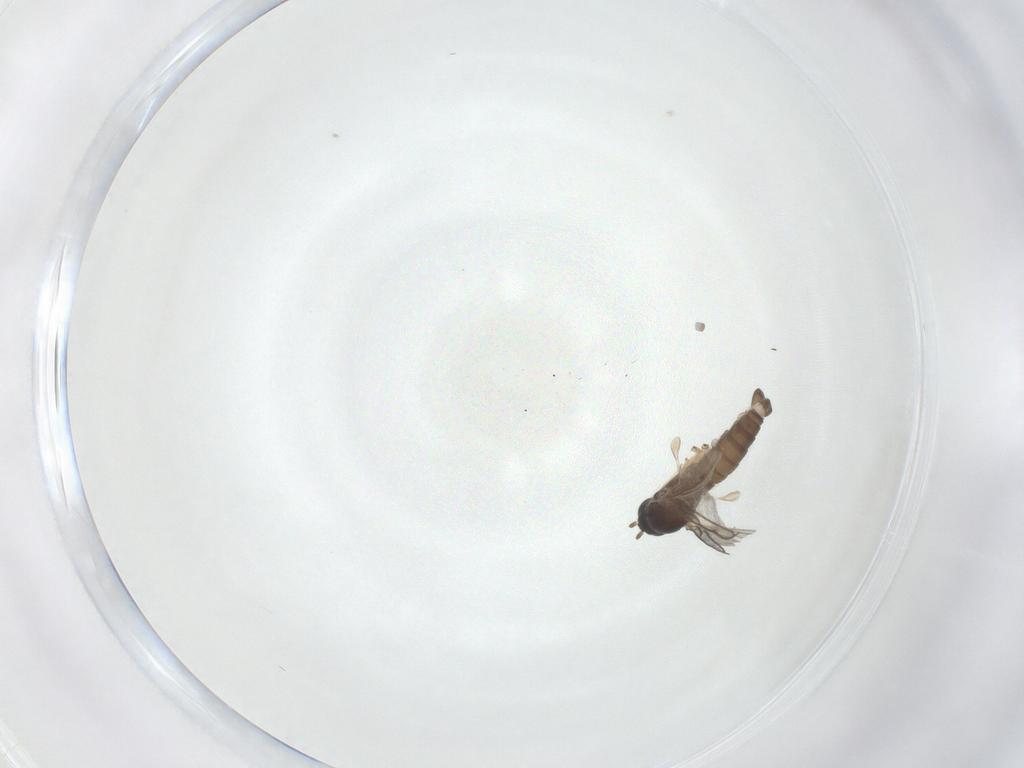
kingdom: Animalia
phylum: Arthropoda
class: Insecta
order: Diptera
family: Sciaridae
